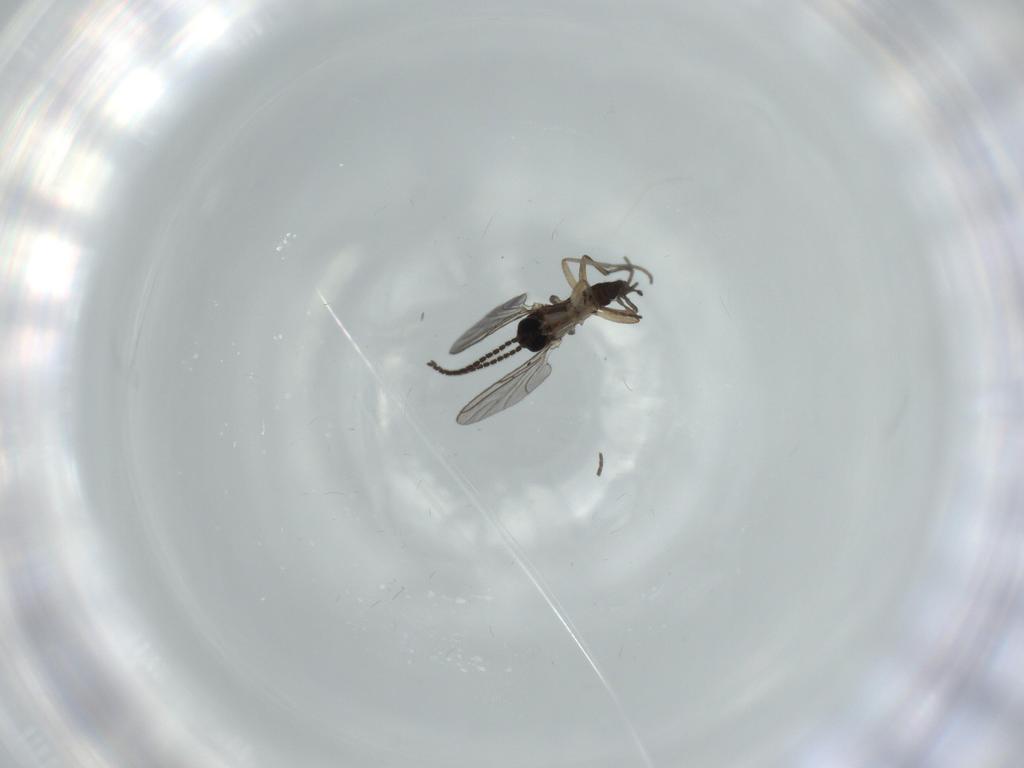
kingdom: Animalia
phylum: Arthropoda
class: Insecta
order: Diptera
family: Sciaridae
